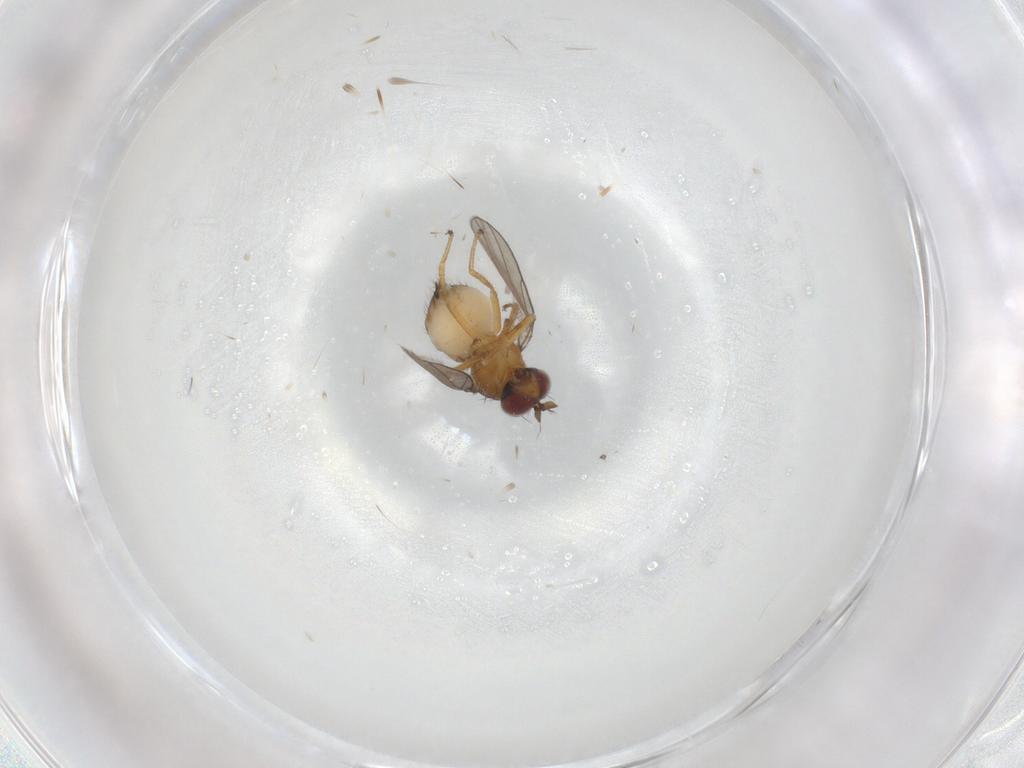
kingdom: Animalia
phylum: Arthropoda
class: Insecta
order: Diptera
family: Ephydridae
